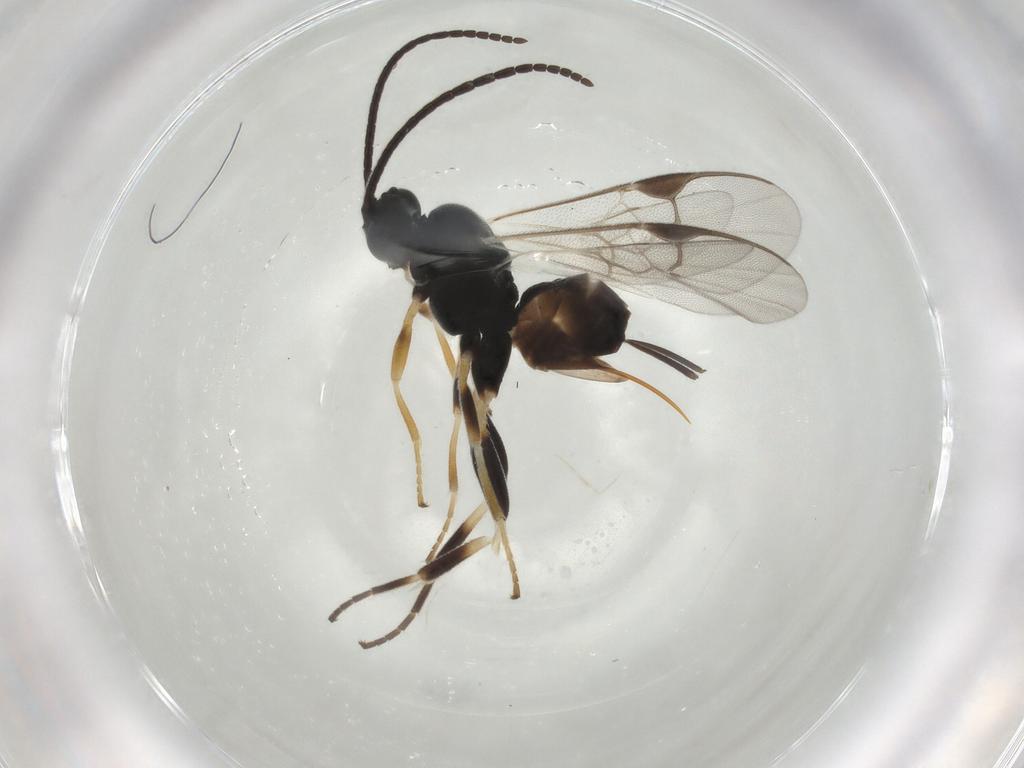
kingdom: Animalia
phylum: Arthropoda
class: Insecta
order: Hymenoptera
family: Braconidae
